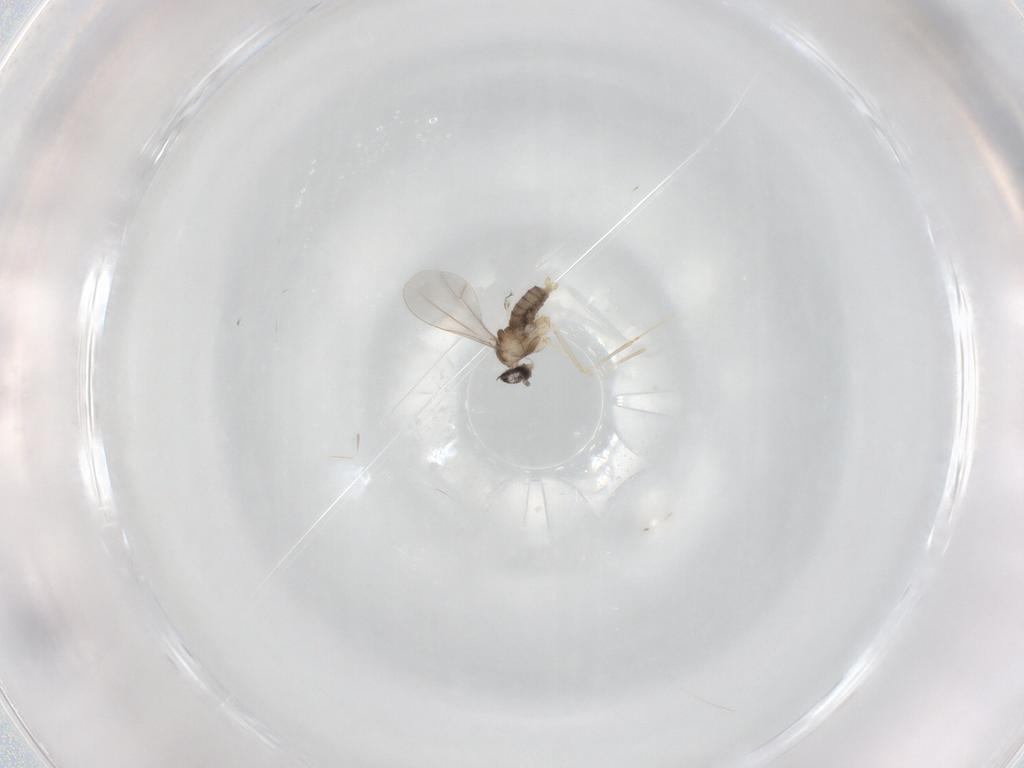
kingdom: Animalia
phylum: Arthropoda
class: Insecta
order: Diptera
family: Cecidomyiidae
